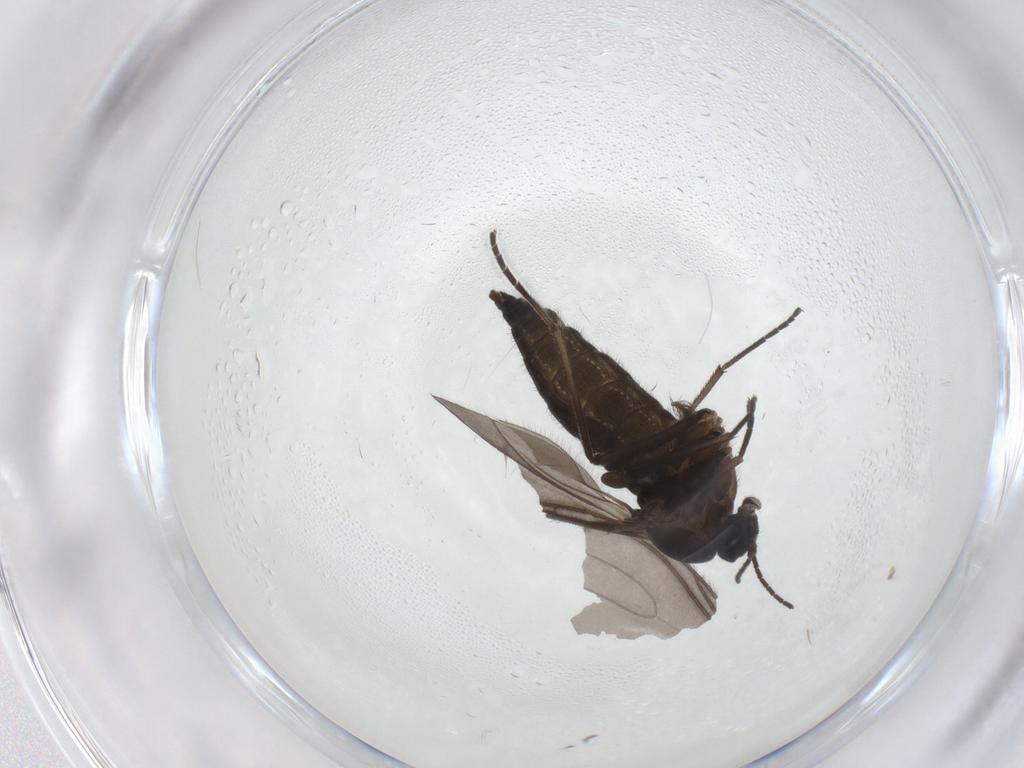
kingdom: Animalia
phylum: Arthropoda
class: Insecta
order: Diptera
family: Sciaridae
